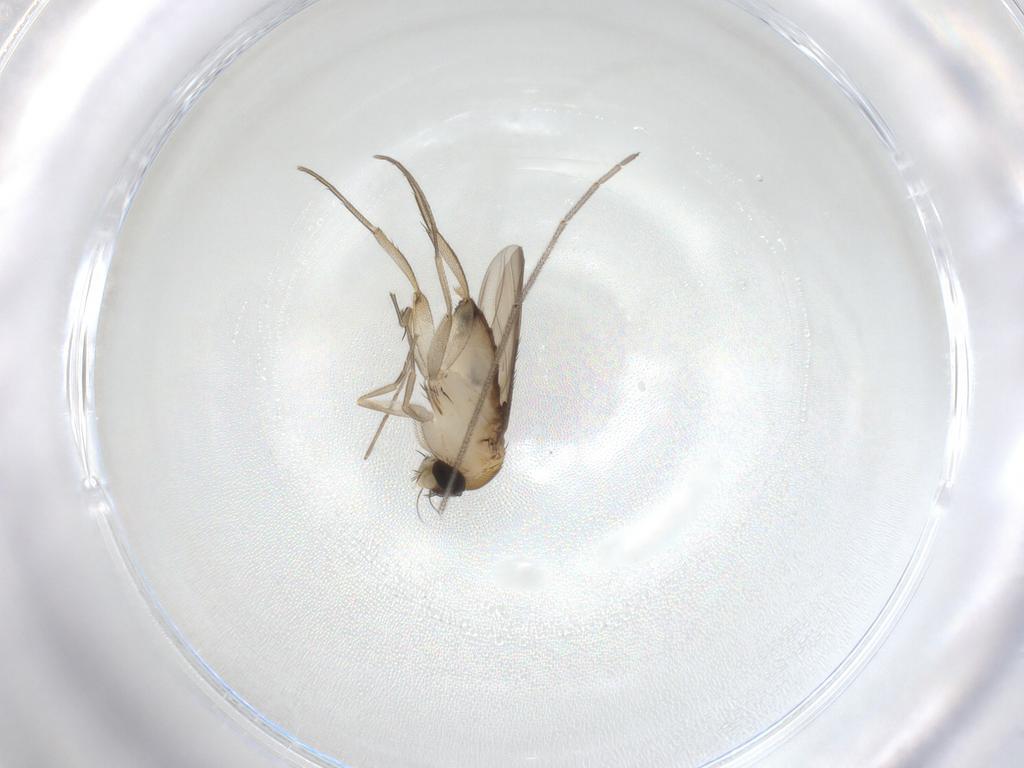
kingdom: Animalia
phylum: Arthropoda
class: Insecta
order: Diptera
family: Phoridae
